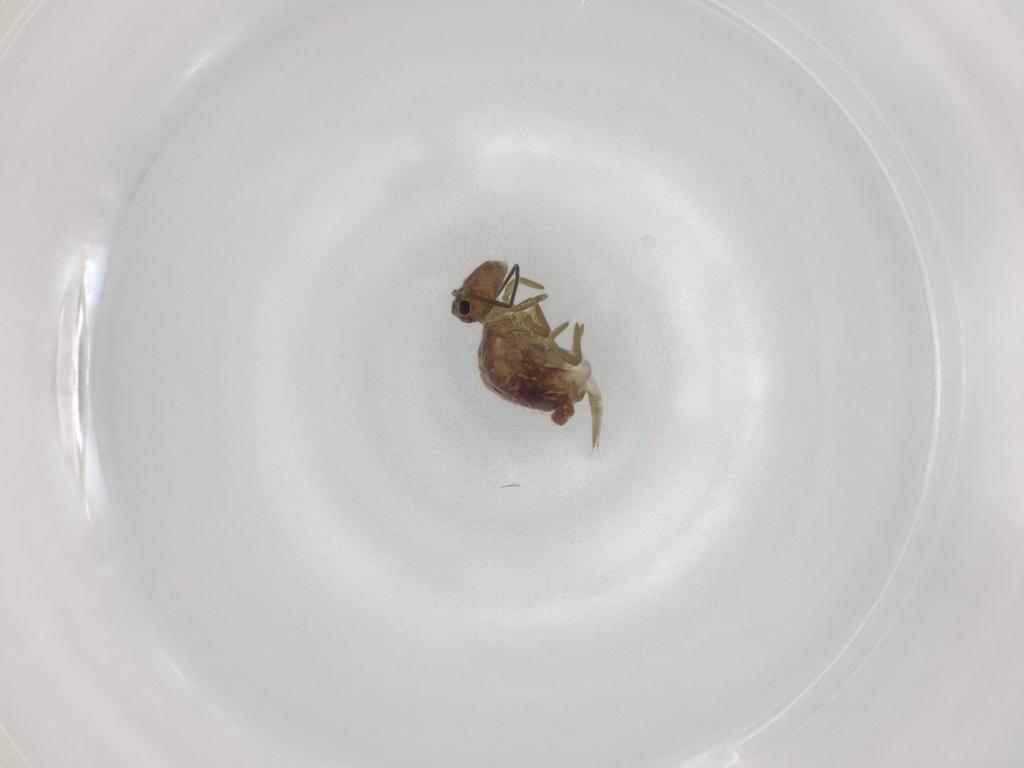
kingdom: Animalia
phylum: Arthropoda
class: Collembola
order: Symphypleona
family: Sminthuridae
